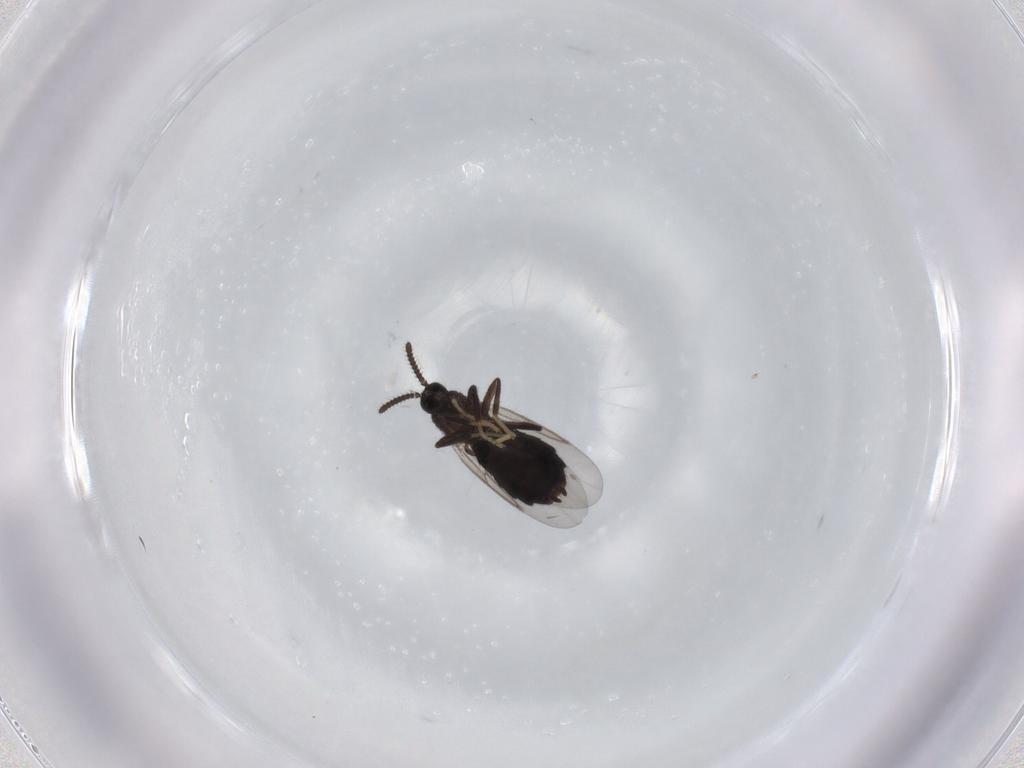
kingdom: Animalia
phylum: Arthropoda
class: Insecta
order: Diptera
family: Scatopsidae
